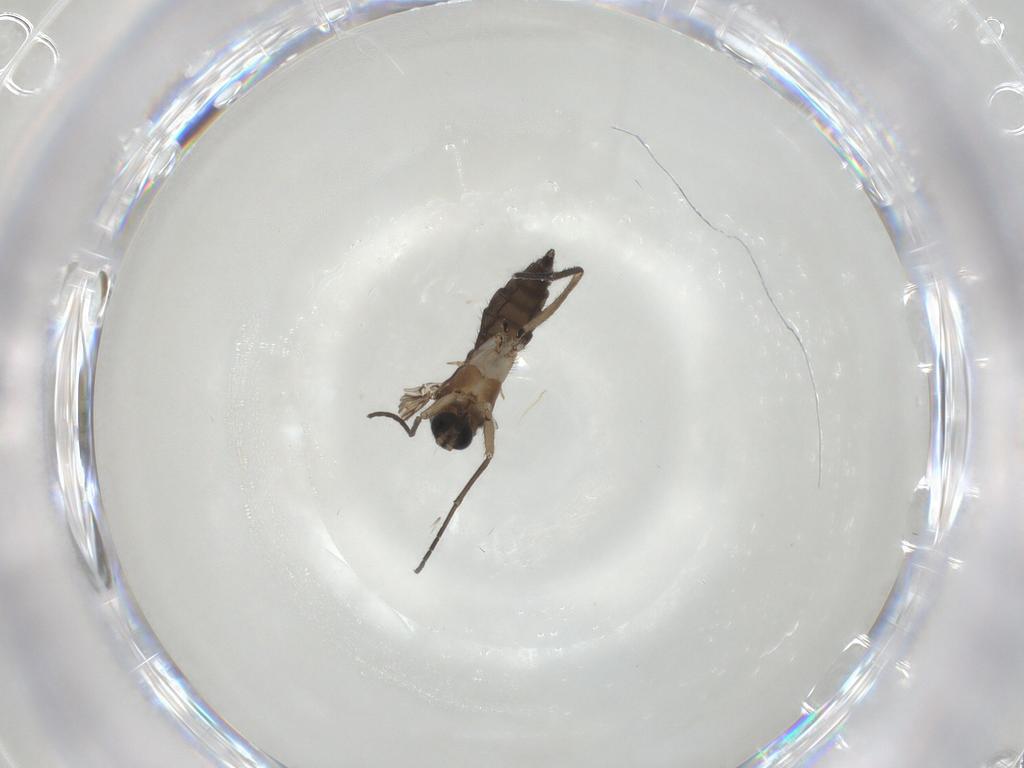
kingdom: Animalia
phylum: Arthropoda
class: Insecta
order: Diptera
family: Sciaridae
